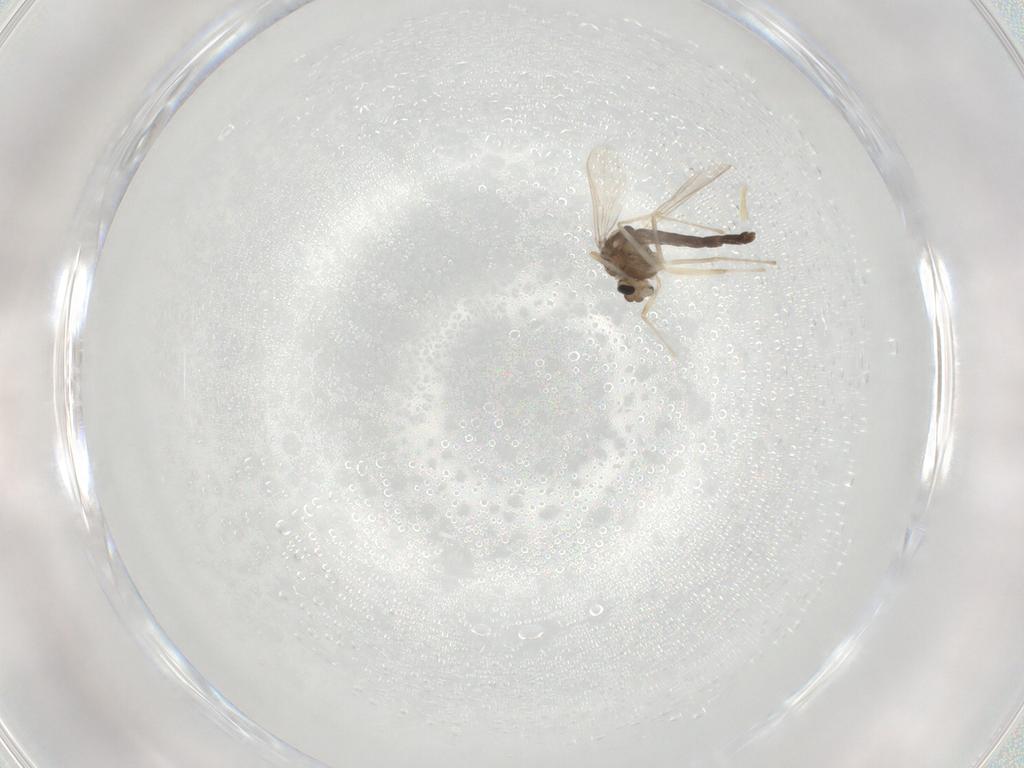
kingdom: Animalia
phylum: Arthropoda
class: Insecta
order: Diptera
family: Chironomidae
